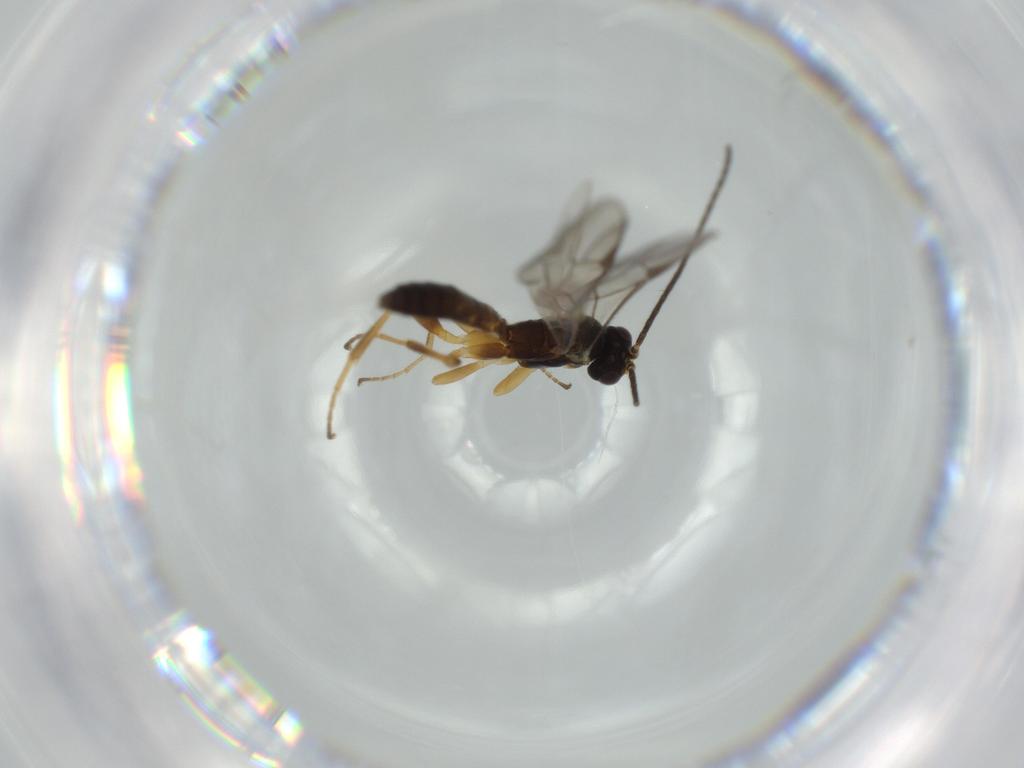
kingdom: Animalia
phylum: Arthropoda
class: Insecta
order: Hymenoptera
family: Ichneumonidae
